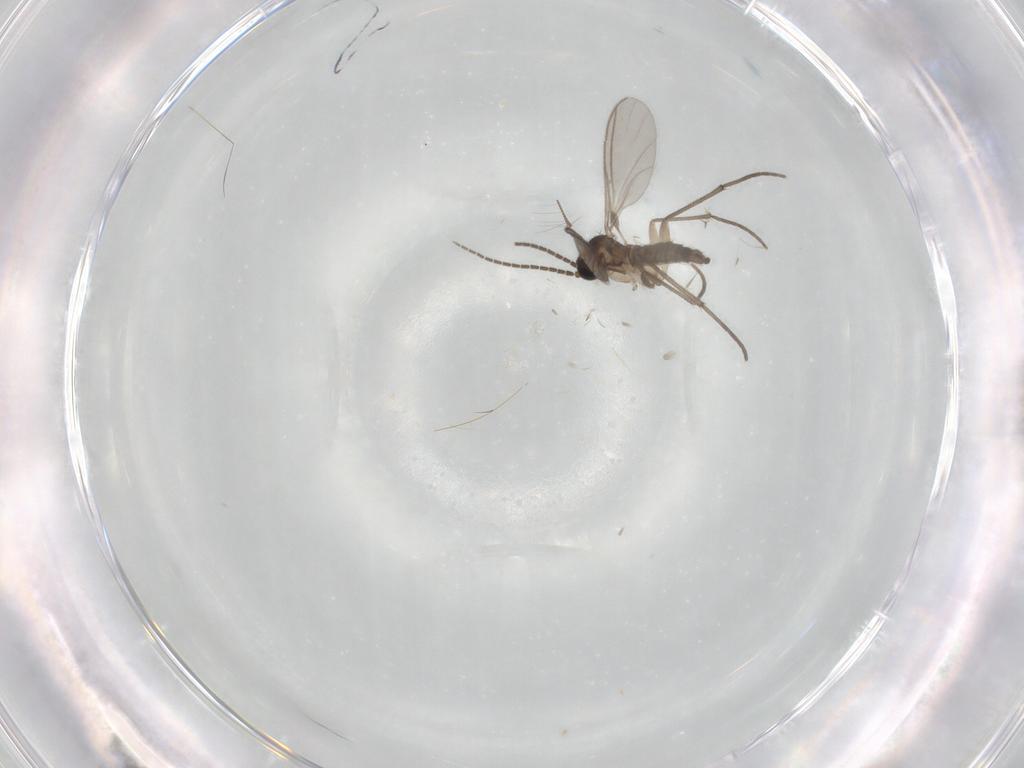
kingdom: Animalia
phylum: Arthropoda
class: Insecta
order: Diptera
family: Sciaridae
